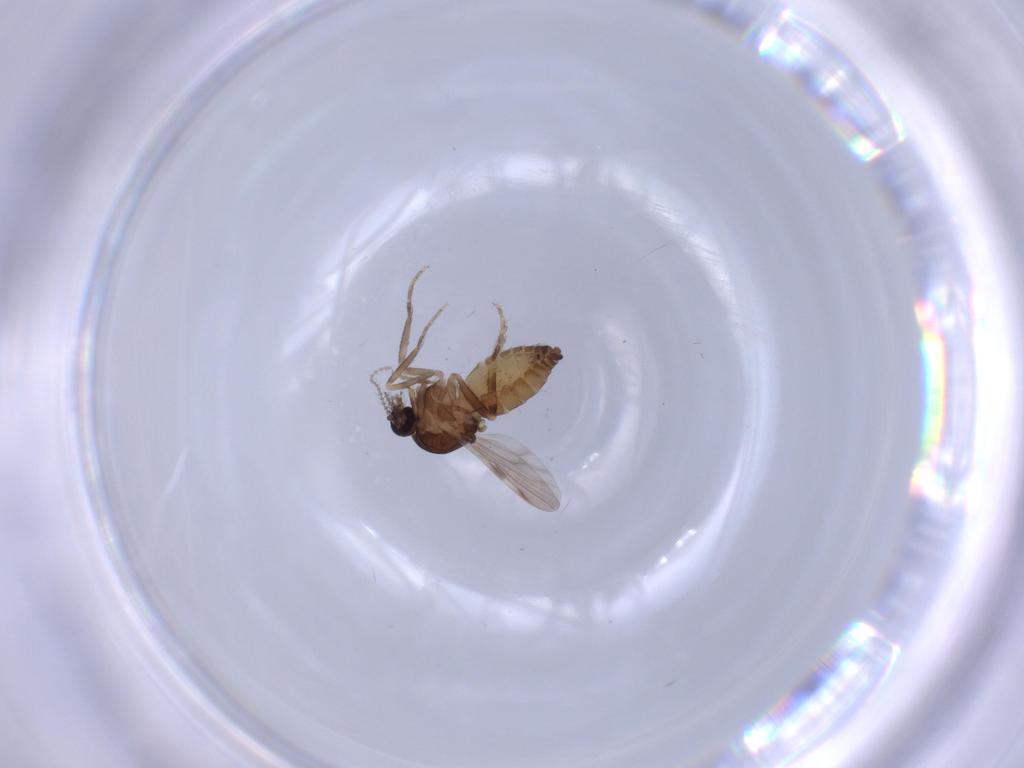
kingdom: Animalia
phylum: Arthropoda
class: Insecta
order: Diptera
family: Ceratopogonidae
